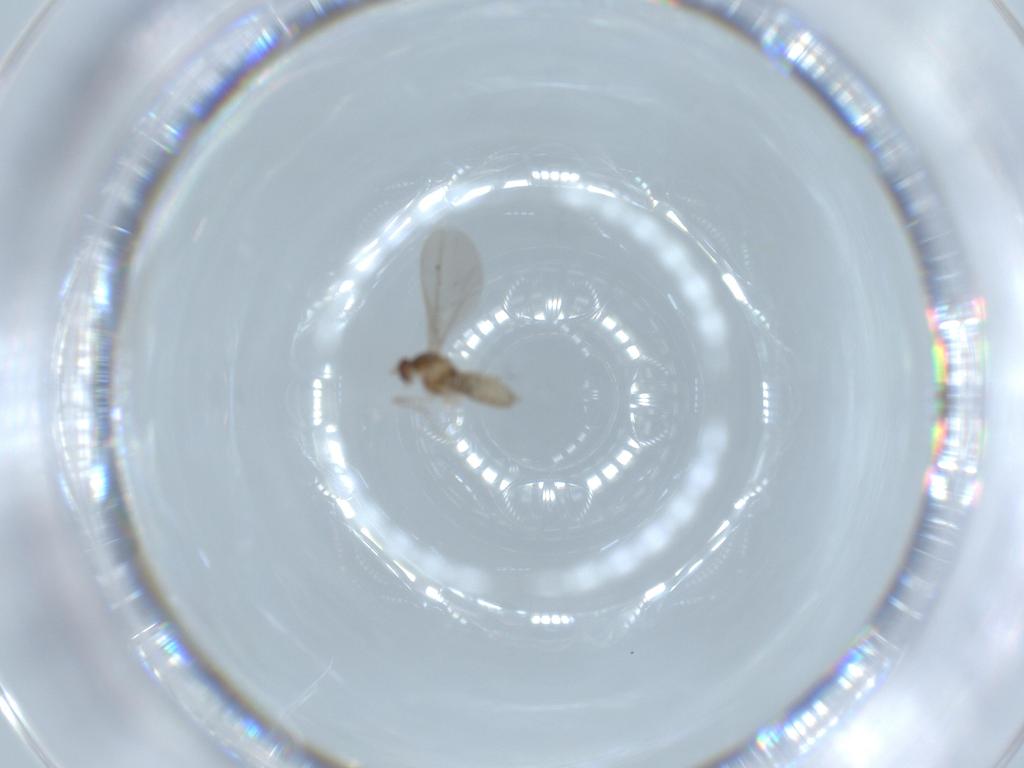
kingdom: Animalia
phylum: Arthropoda
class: Insecta
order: Diptera
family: Cecidomyiidae
